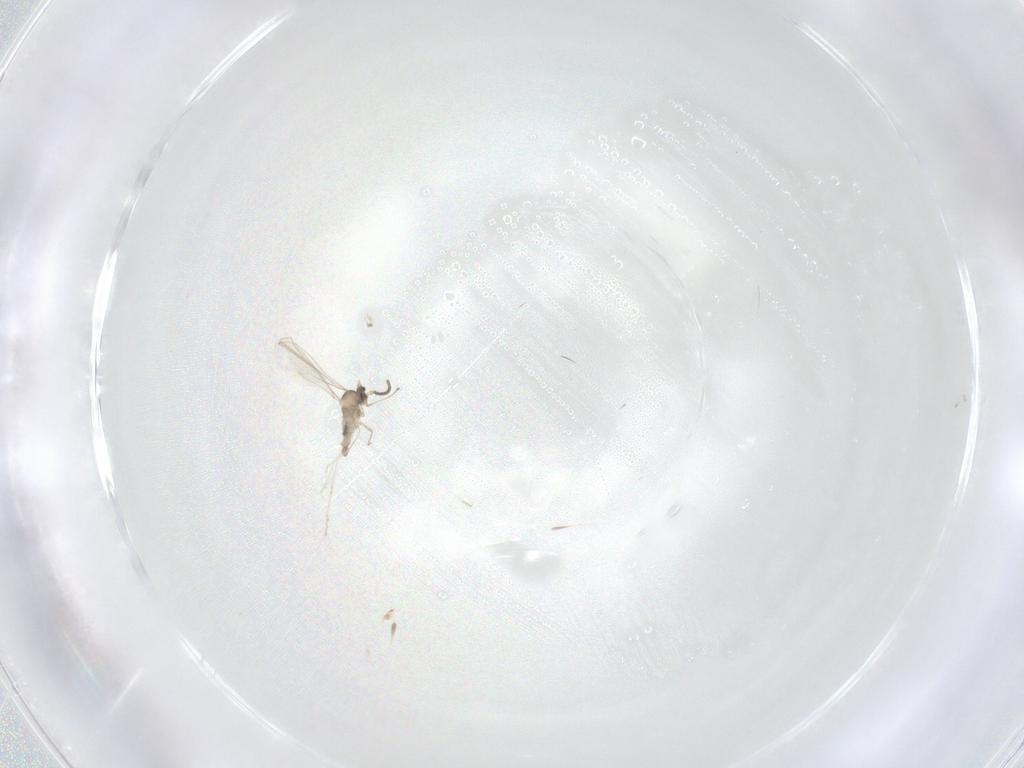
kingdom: Animalia
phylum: Arthropoda
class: Insecta
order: Diptera
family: Cecidomyiidae
